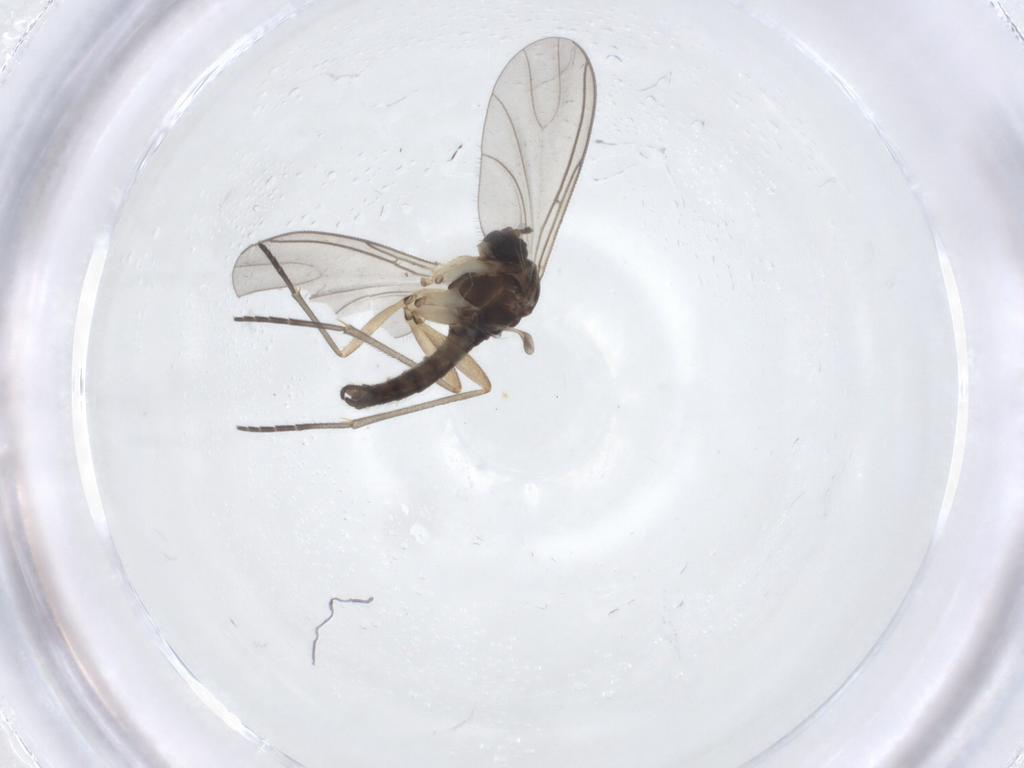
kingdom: Animalia
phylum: Arthropoda
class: Insecta
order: Diptera
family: Sciaridae
